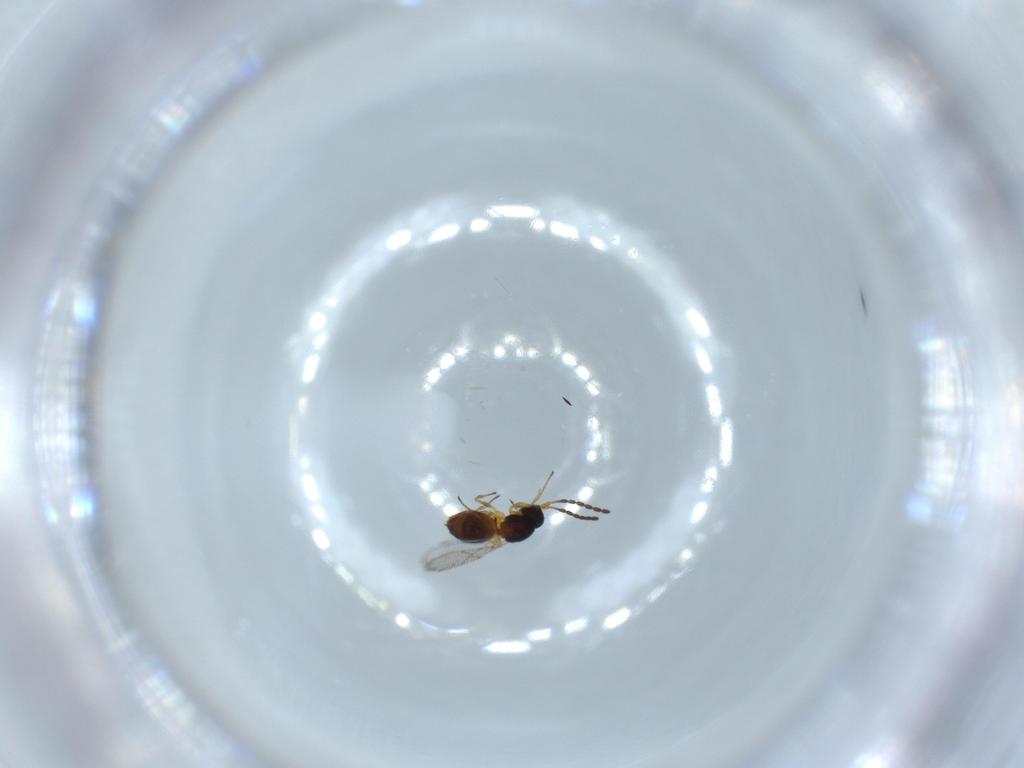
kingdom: Animalia
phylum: Arthropoda
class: Insecta
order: Hymenoptera
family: Figitidae
